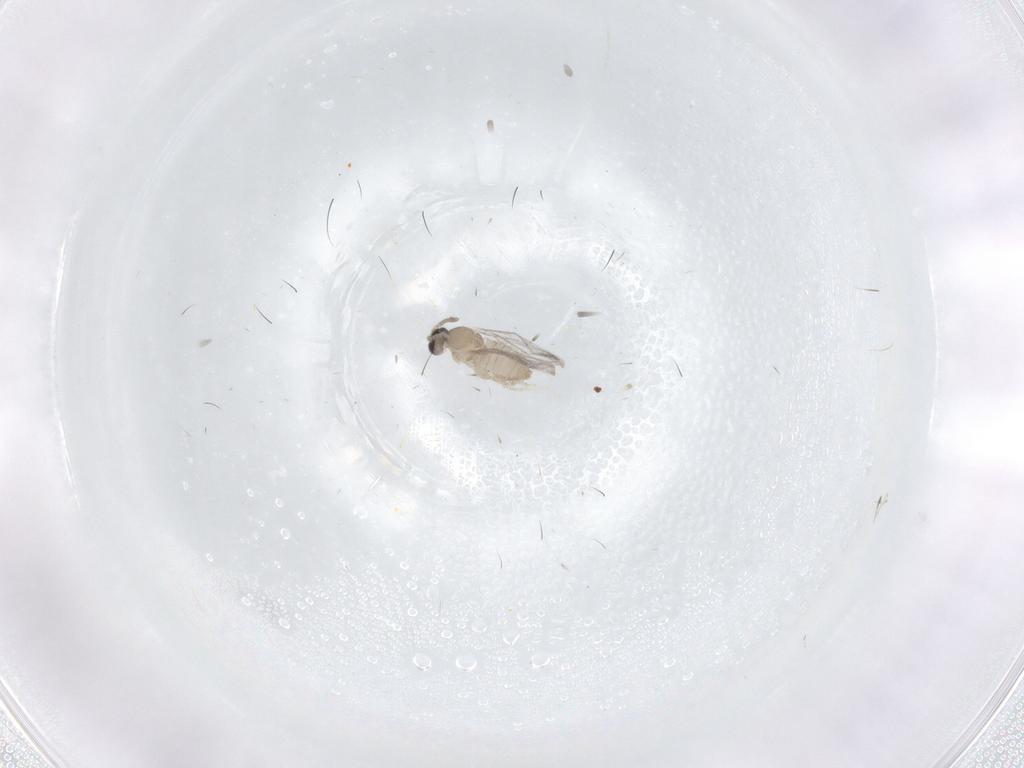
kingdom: Animalia
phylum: Arthropoda
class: Insecta
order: Diptera
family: Cecidomyiidae
